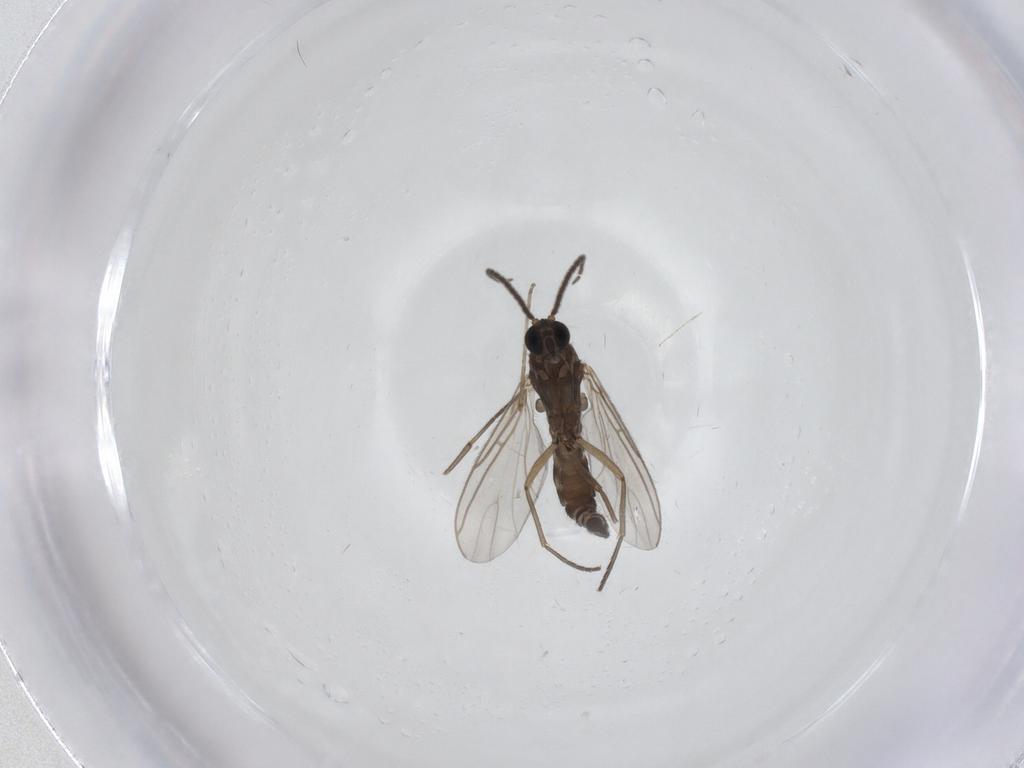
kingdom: Animalia
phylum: Arthropoda
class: Insecta
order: Diptera
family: Sciaridae
